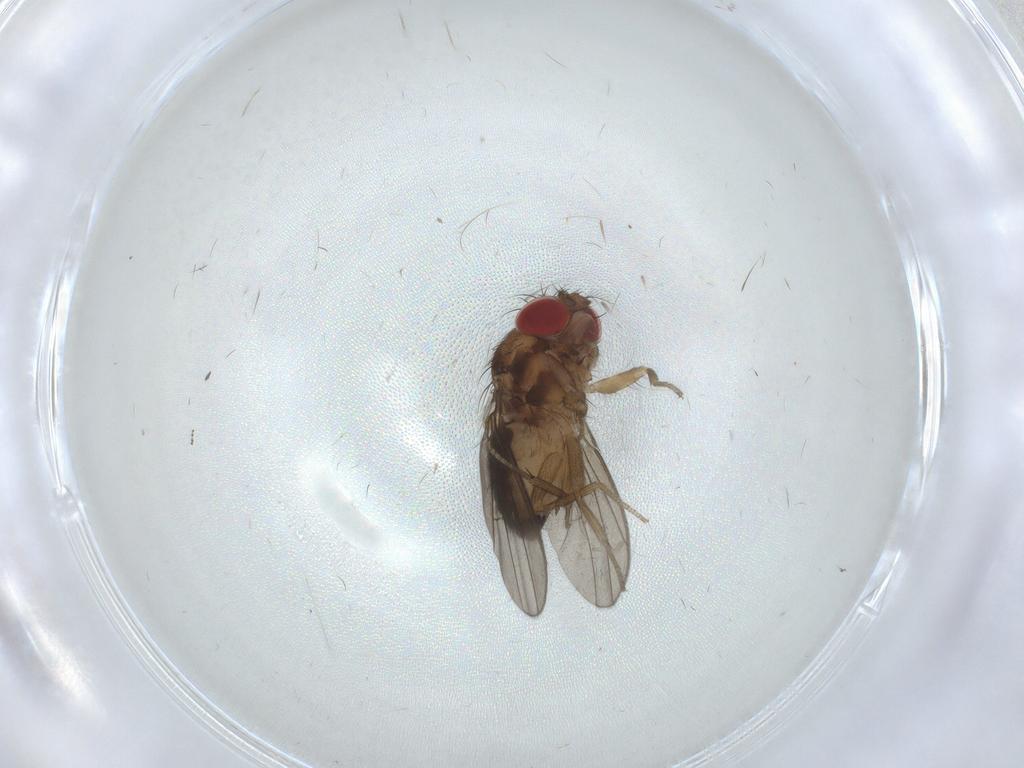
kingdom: Animalia
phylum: Arthropoda
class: Insecta
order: Diptera
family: Drosophilidae
